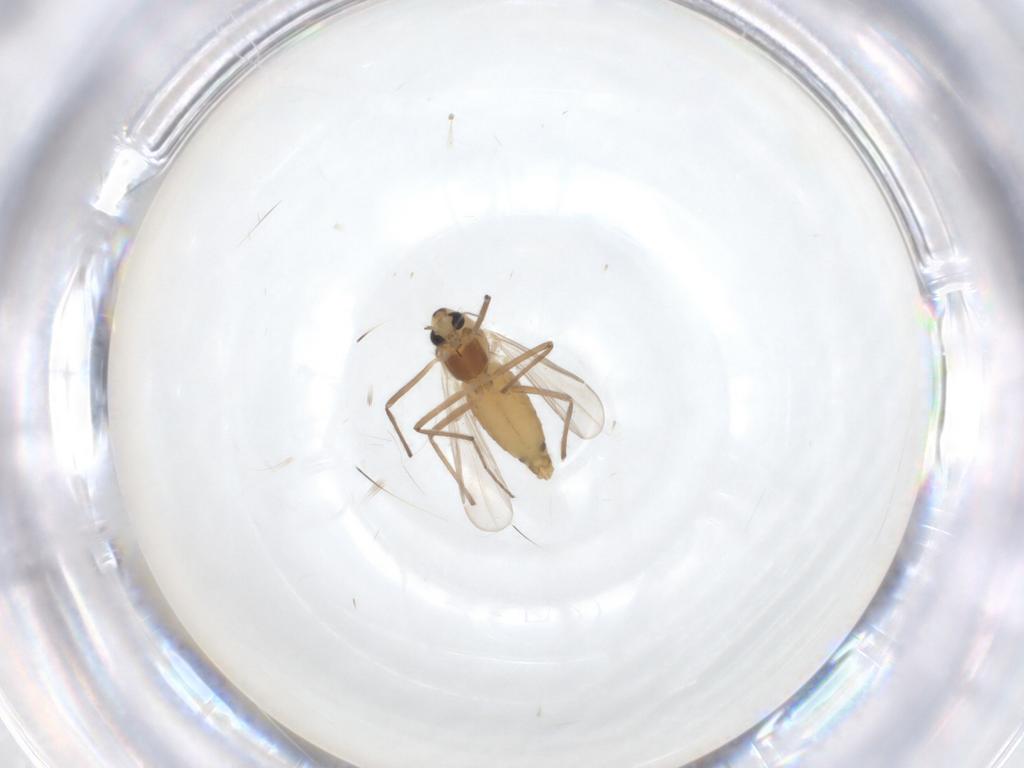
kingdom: Animalia
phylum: Arthropoda
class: Insecta
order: Diptera
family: Chironomidae
